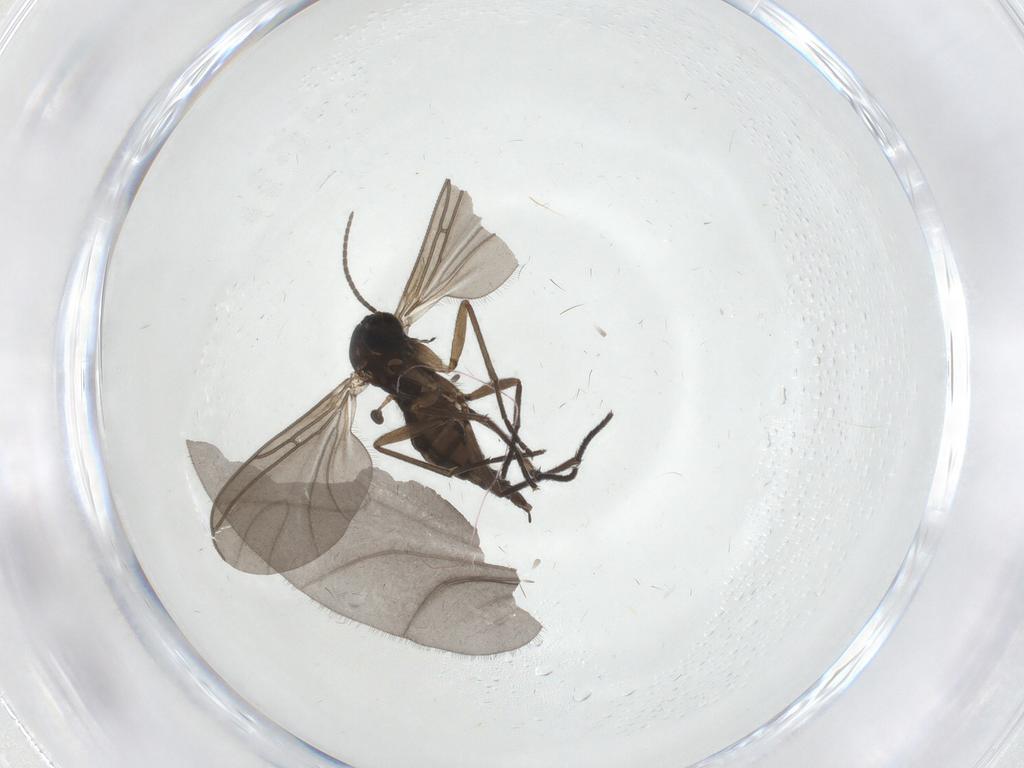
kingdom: Animalia
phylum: Arthropoda
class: Insecta
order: Diptera
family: Sciaridae
